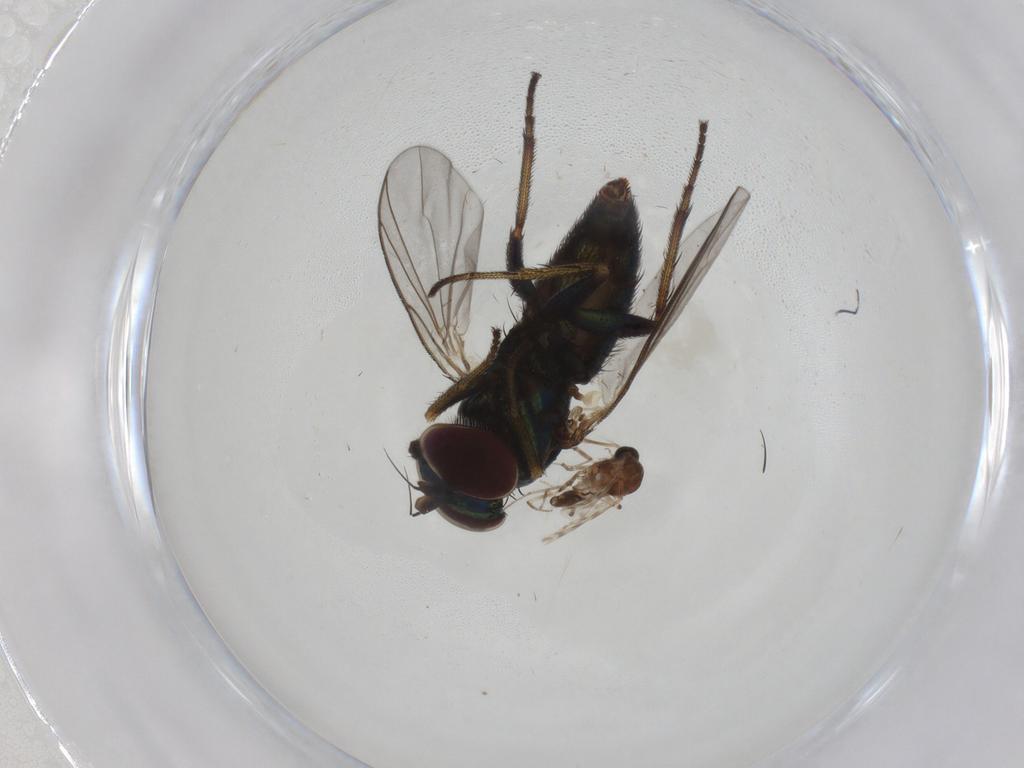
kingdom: Animalia
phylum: Arthropoda
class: Insecta
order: Diptera
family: Dolichopodidae
